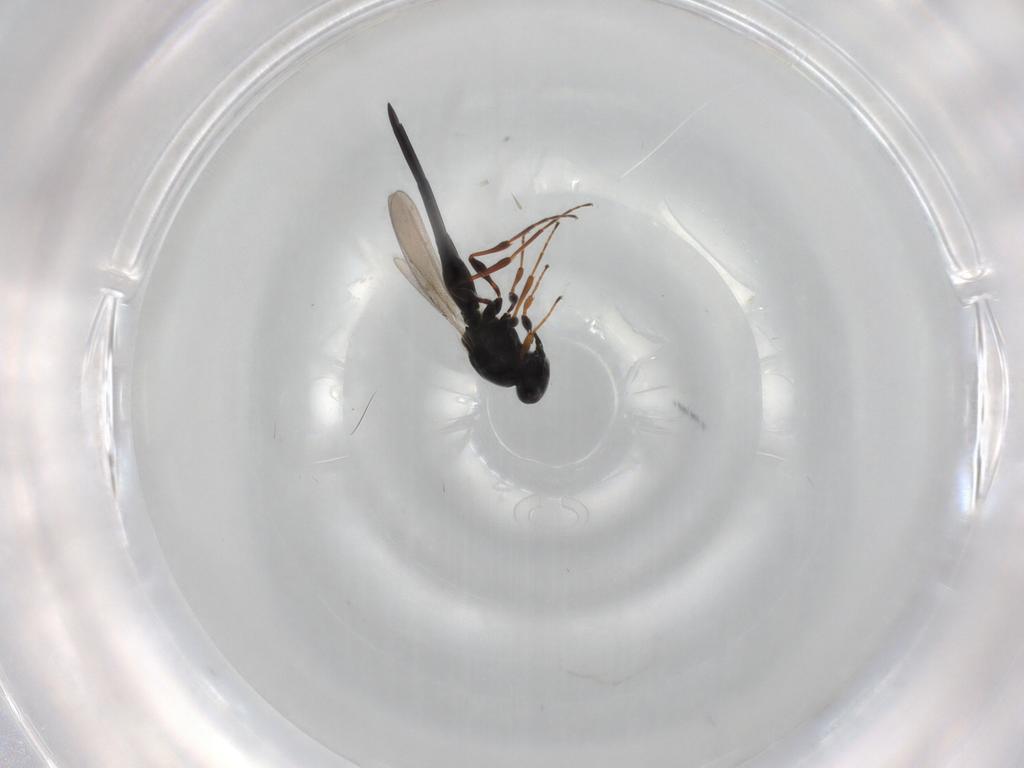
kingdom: Animalia
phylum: Arthropoda
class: Insecta
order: Hymenoptera
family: Platygastridae
